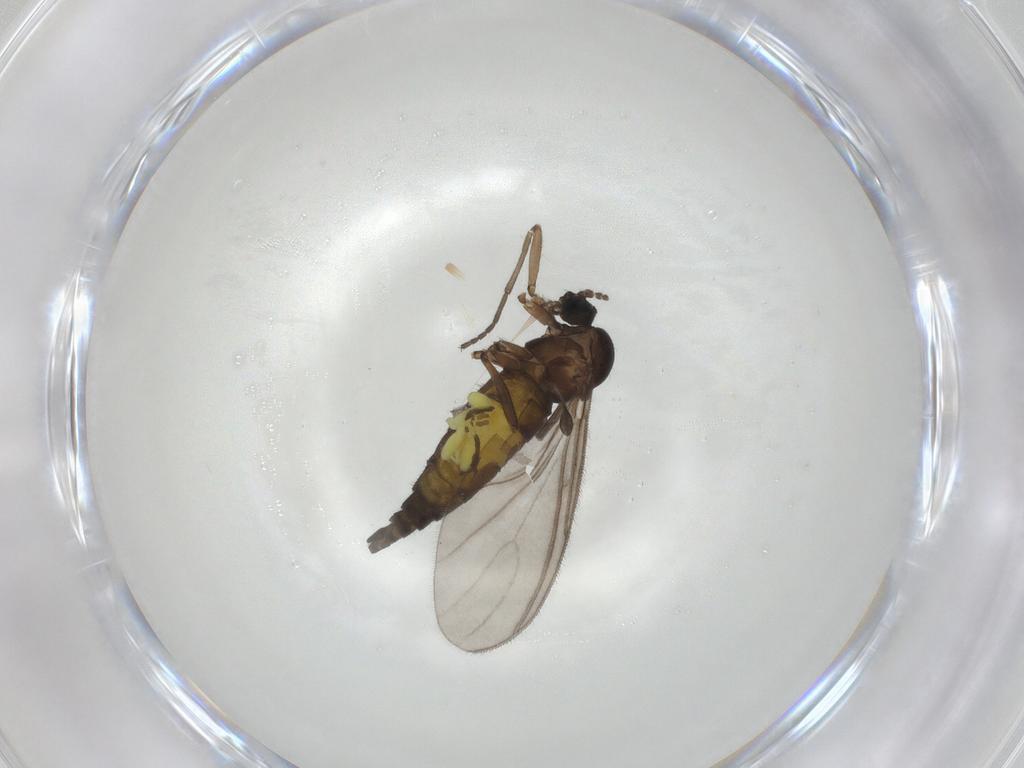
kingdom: Animalia
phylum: Arthropoda
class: Insecta
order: Diptera
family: Sciaridae
